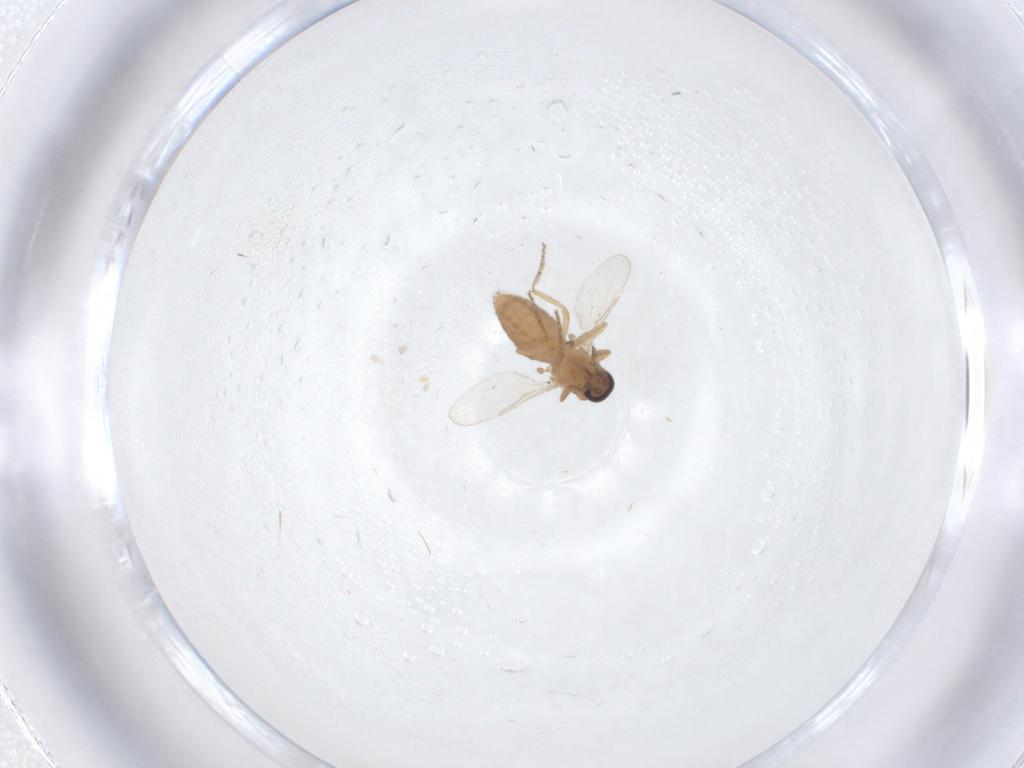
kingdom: Animalia
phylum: Arthropoda
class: Insecta
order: Diptera
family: Ceratopogonidae
